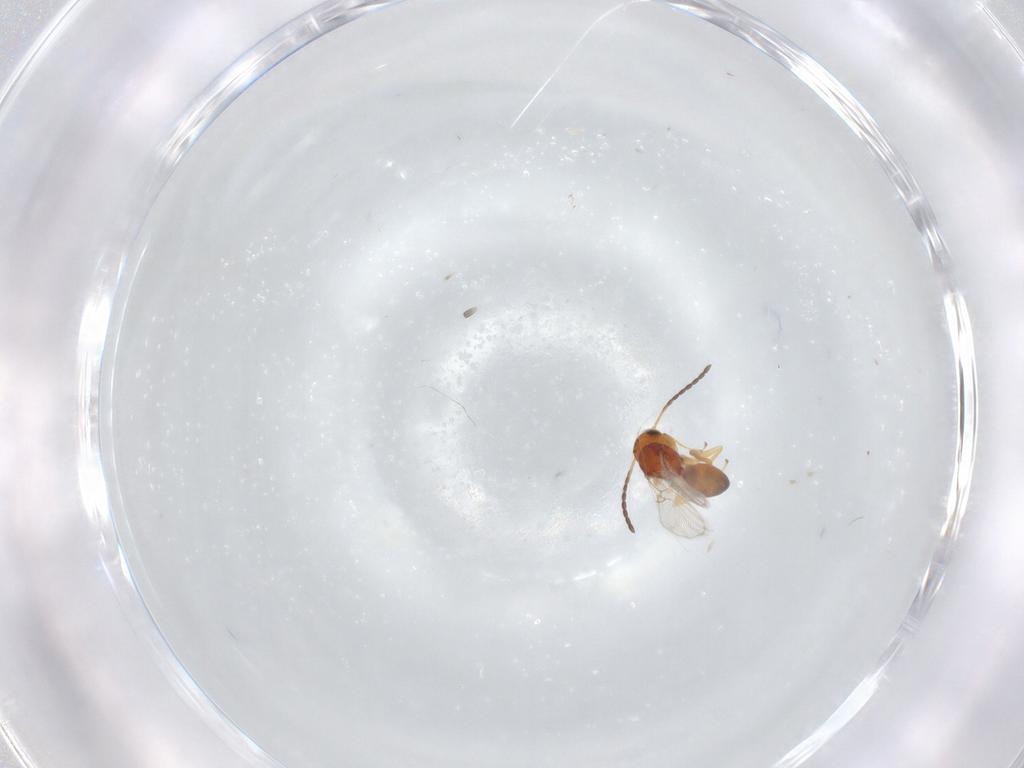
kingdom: Animalia
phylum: Arthropoda
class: Insecta
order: Hymenoptera
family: Figitidae
